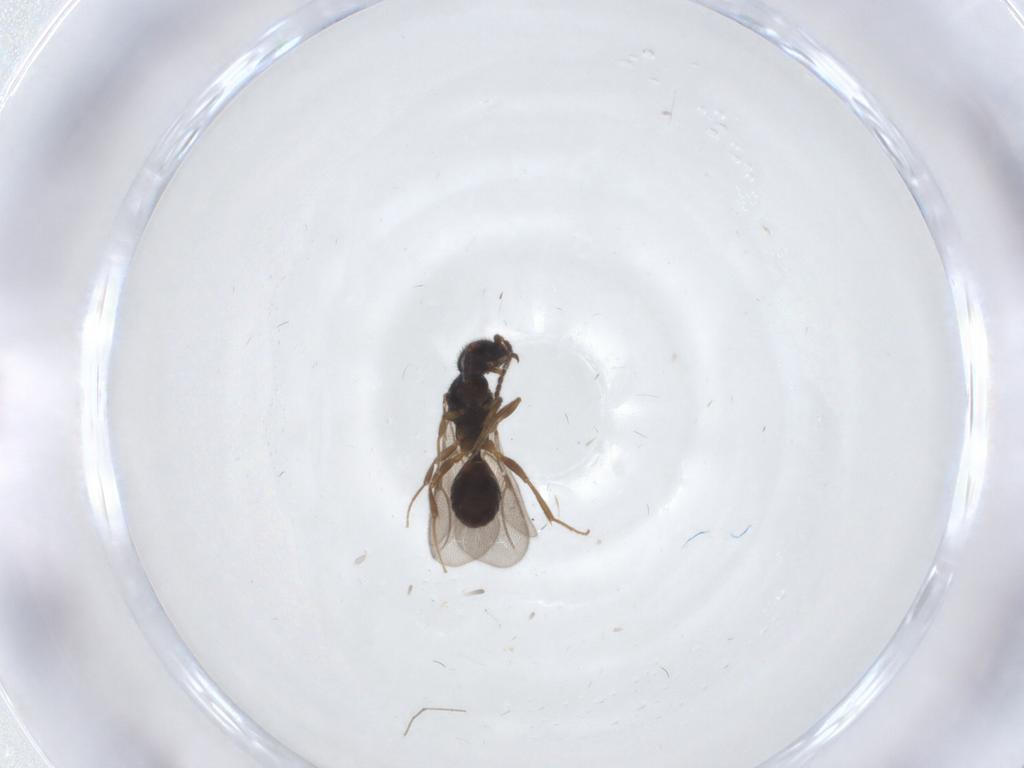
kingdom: Animalia
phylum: Arthropoda
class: Insecta
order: Hymenoptera
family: Bethylidae
